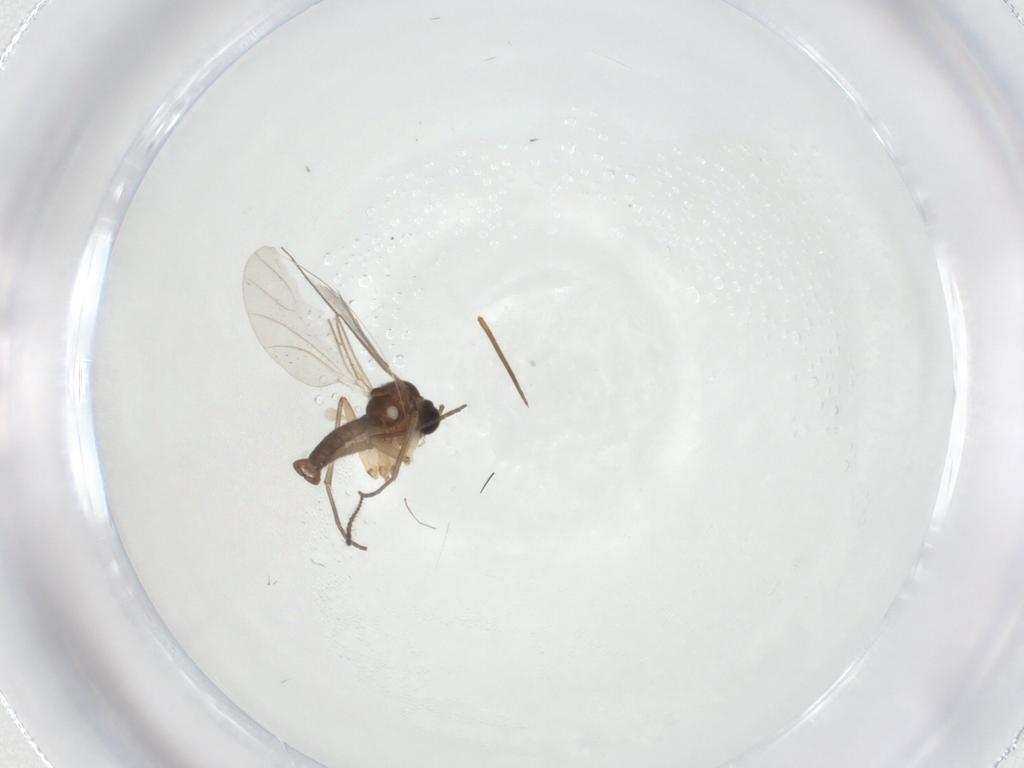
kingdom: Animalia
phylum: Arthropoda
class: Insecta
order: Diptera
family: Limoniidae
